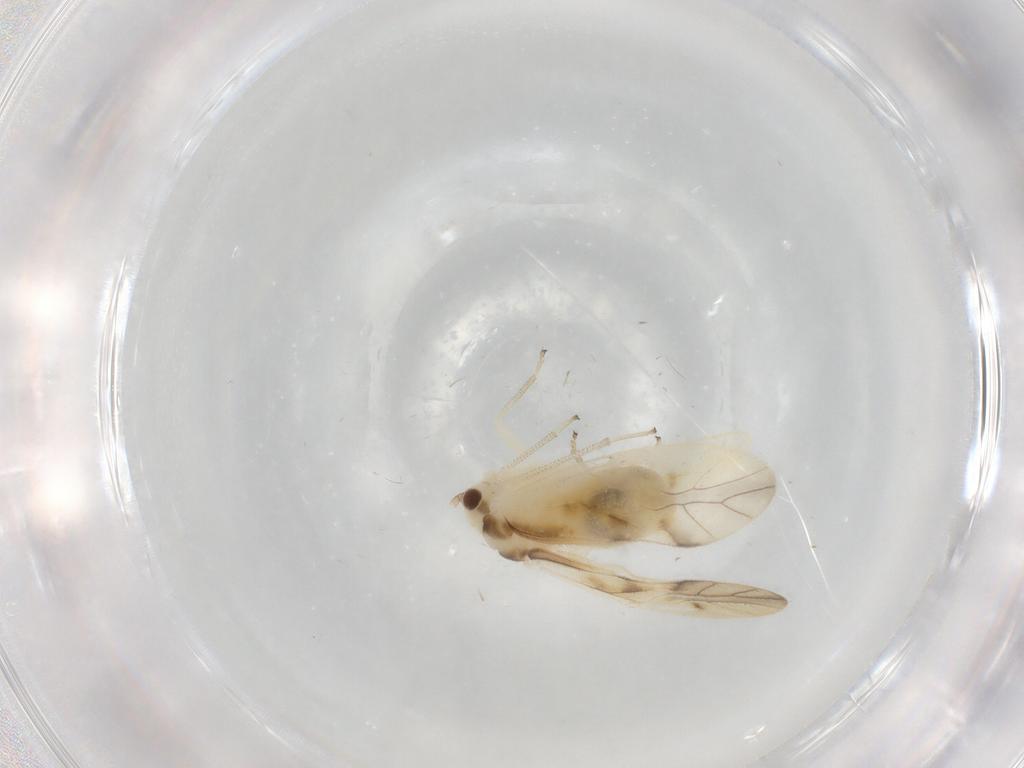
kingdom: Animalia
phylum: Arthropoda
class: Insecta
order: Psocodea
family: Caeciliusidae
